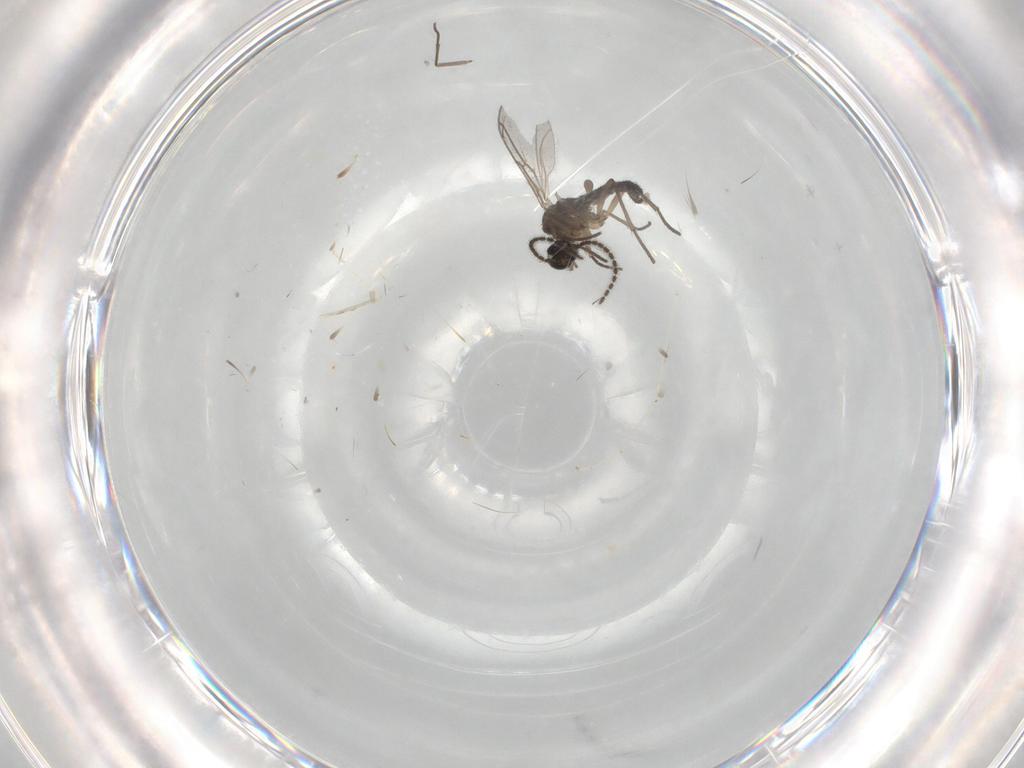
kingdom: Animalia
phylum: Arthropoda
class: Insecta
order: Diptera
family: Sciaridae
